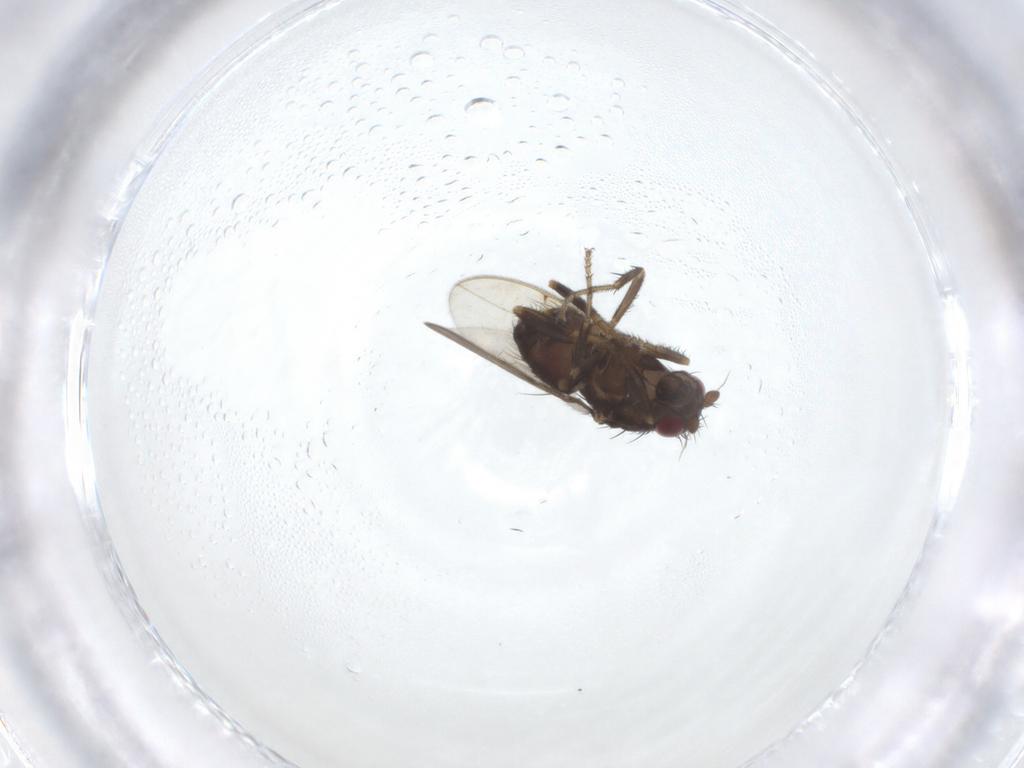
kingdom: Animalia
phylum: Arthropoda
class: Insecta
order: Diptera
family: Sphaeroceridae
